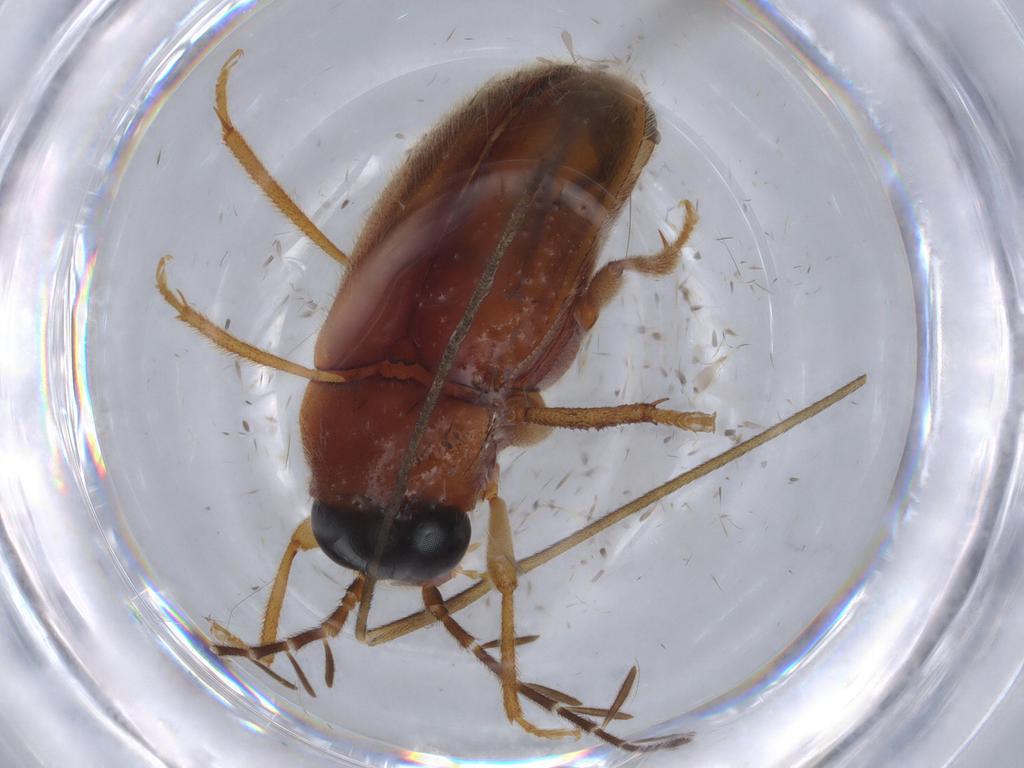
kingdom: Animalia
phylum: Arthropoda
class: Insecta
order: Coleoptera
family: Ptilodactylidae
